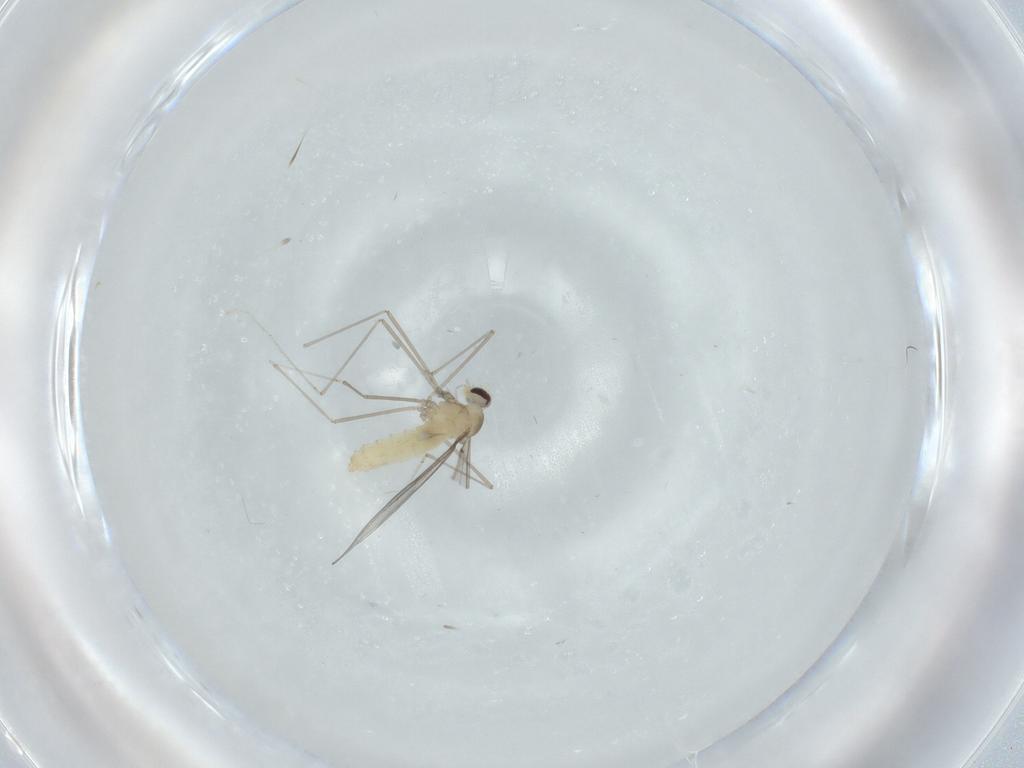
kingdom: Animalia
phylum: Arthropoda
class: Insecta
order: Diptera
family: Cecidomyiidae
